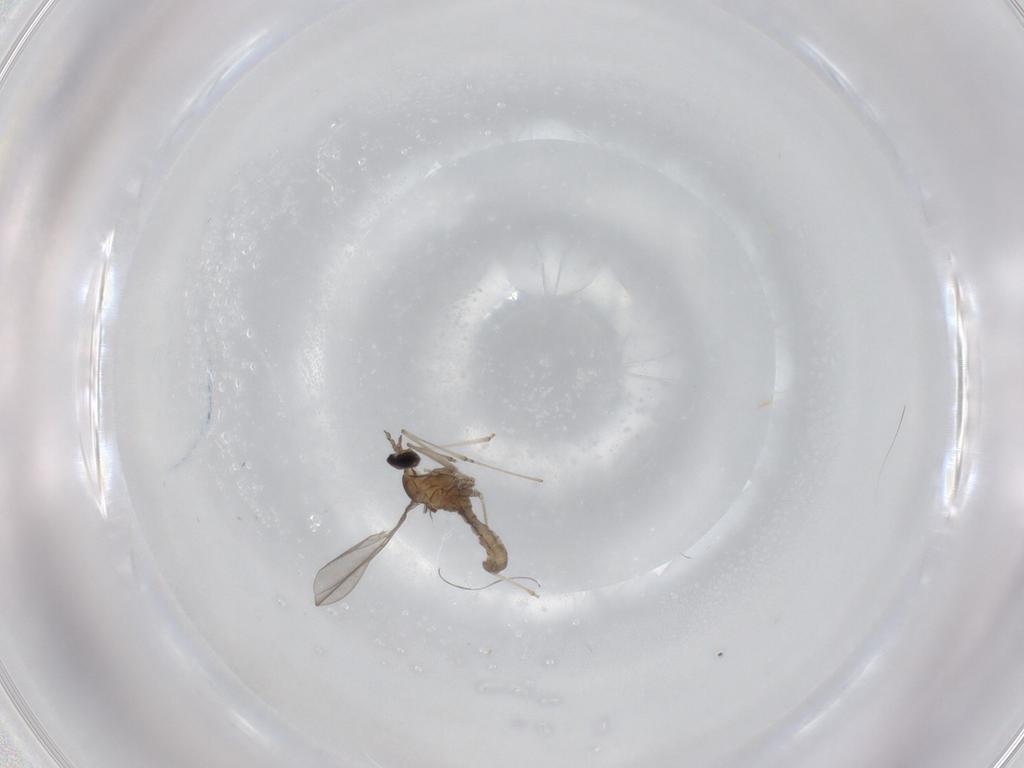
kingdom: Animalia
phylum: Arthropoda
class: Insecta
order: Diptera
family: Cecidomyiidae
